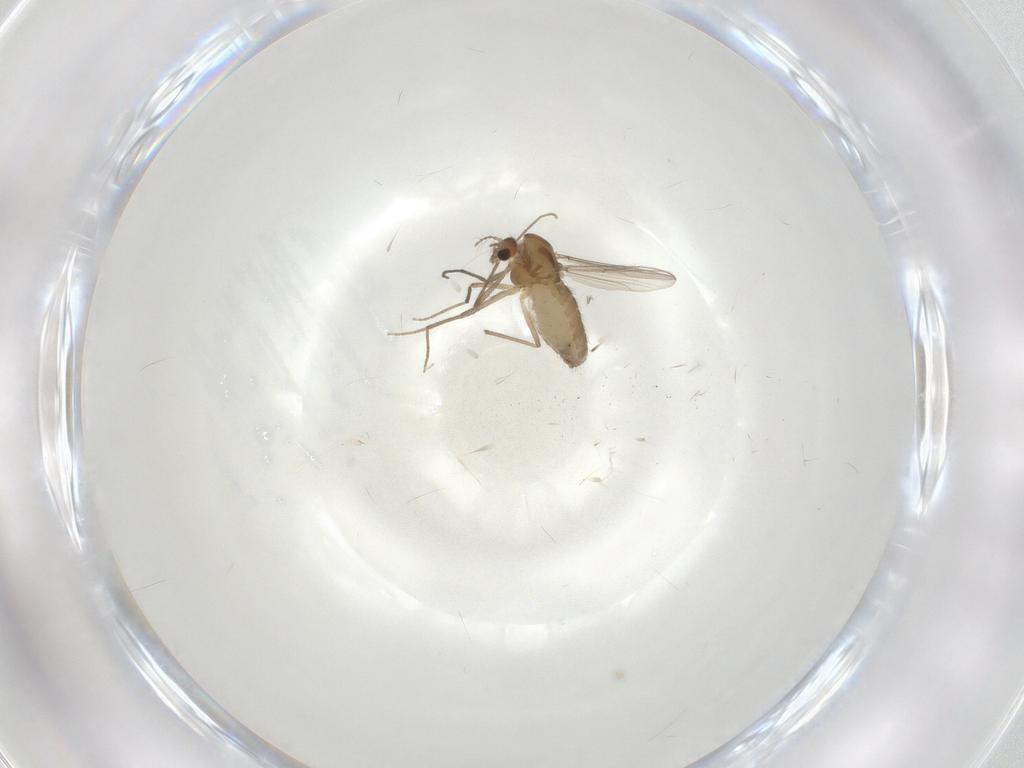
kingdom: Animalia
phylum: Arthropoda
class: Insecta
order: Diptera
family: Chironomidae
